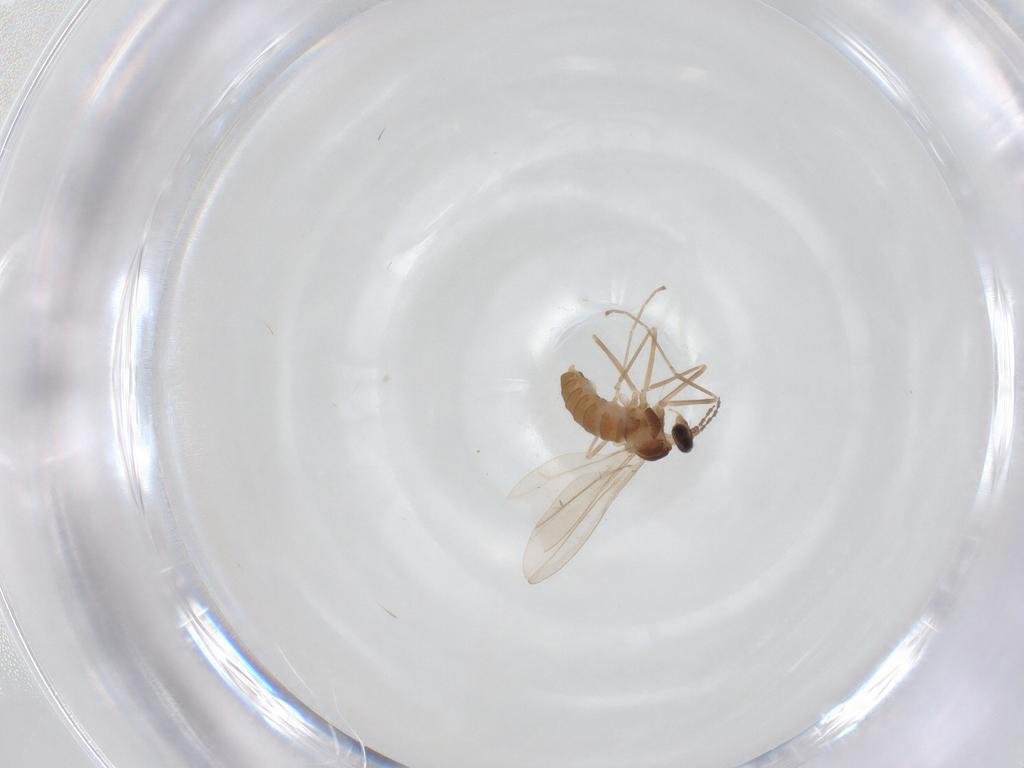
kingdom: Animalia
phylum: Arthropoda
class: Insecta
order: Diptera
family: Cecidomyiidae
